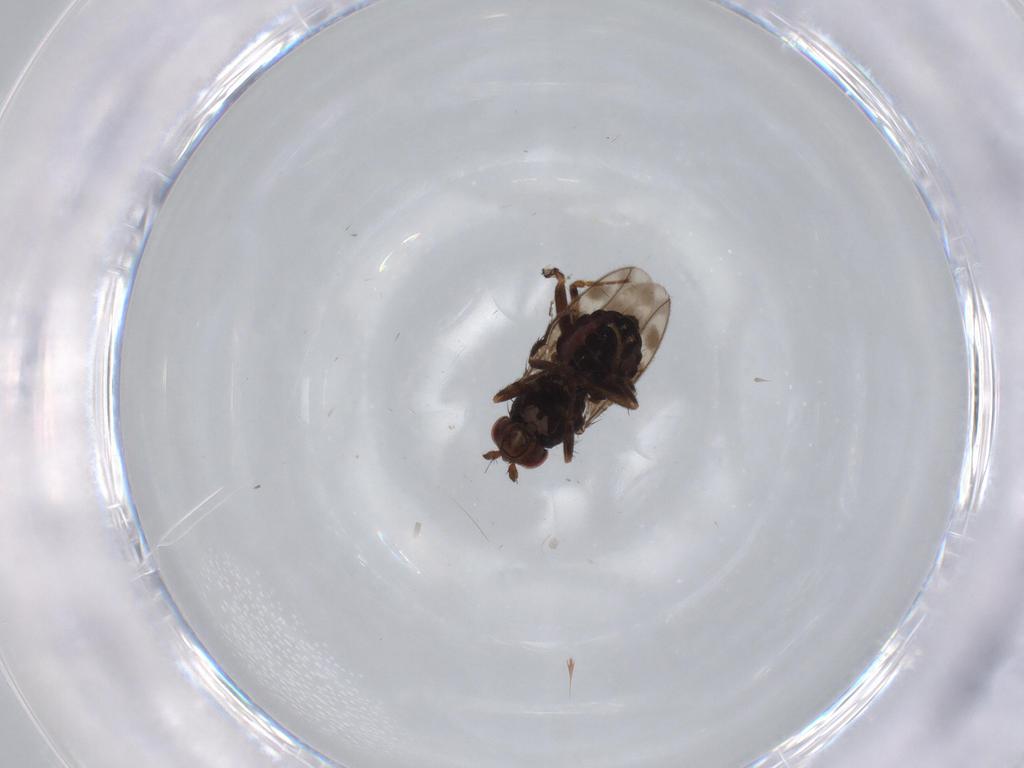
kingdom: Animalia
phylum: Arthropoda
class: Insecta
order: Diptera
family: Sphaeroceridae
